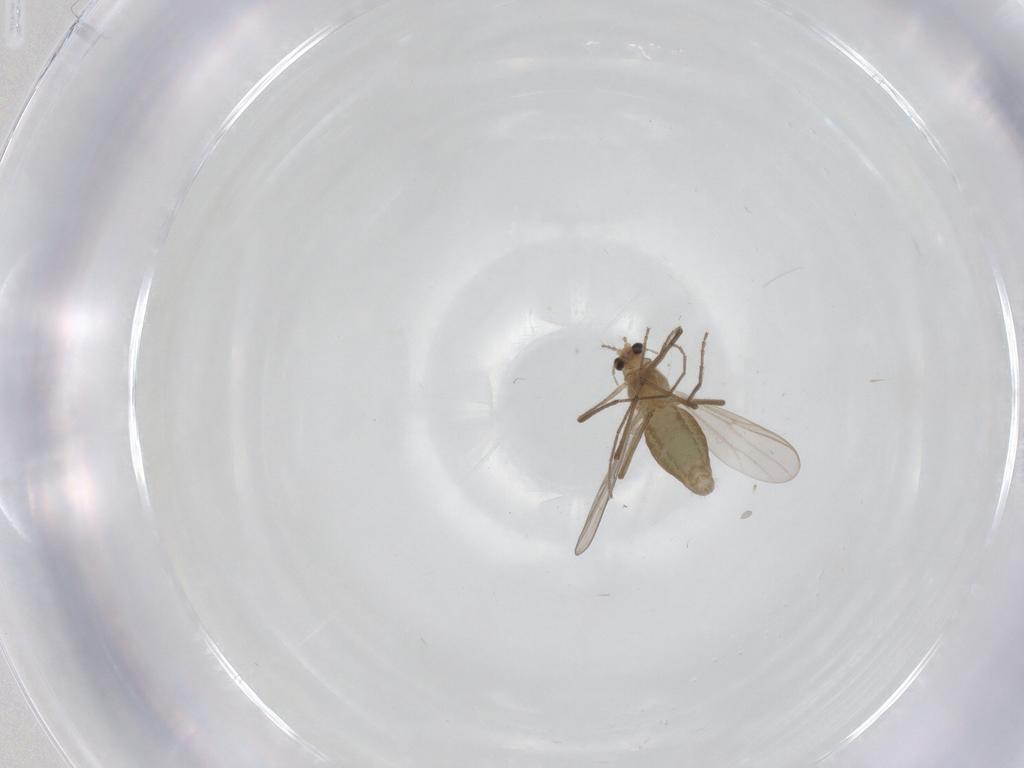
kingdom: Animalia
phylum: Arthropoda
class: Insecta
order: Diptera
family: Chironomidae
